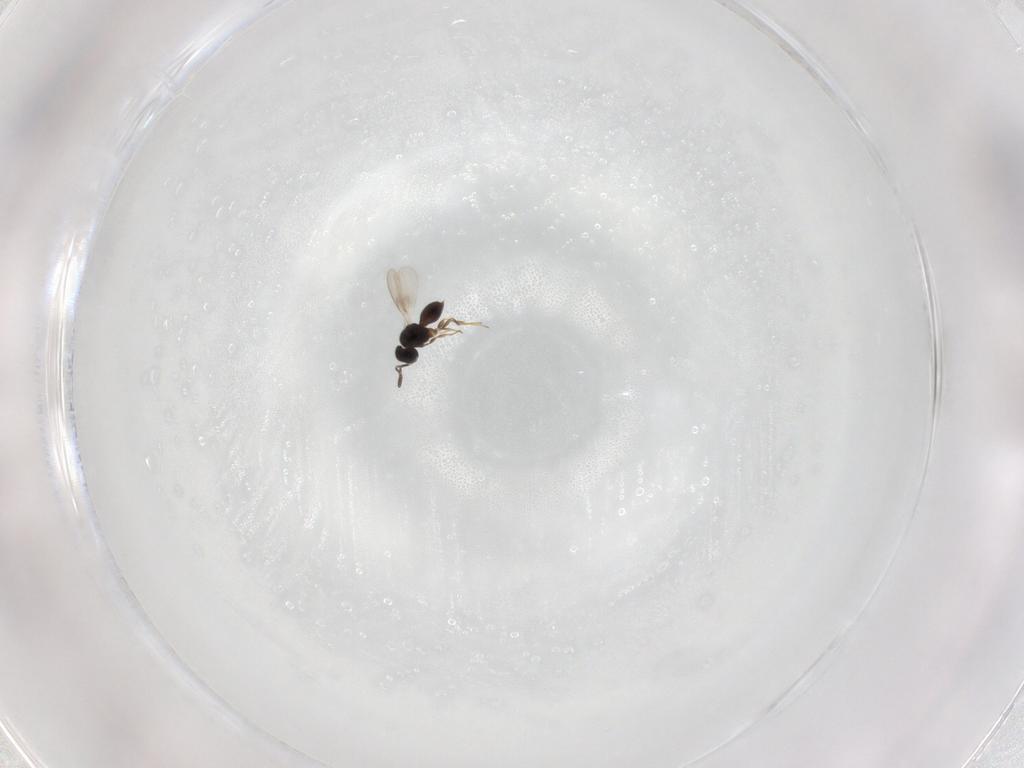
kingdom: Animalia
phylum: Arthropoda
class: Insecta
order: Hymenoptera
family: Scelionidae
